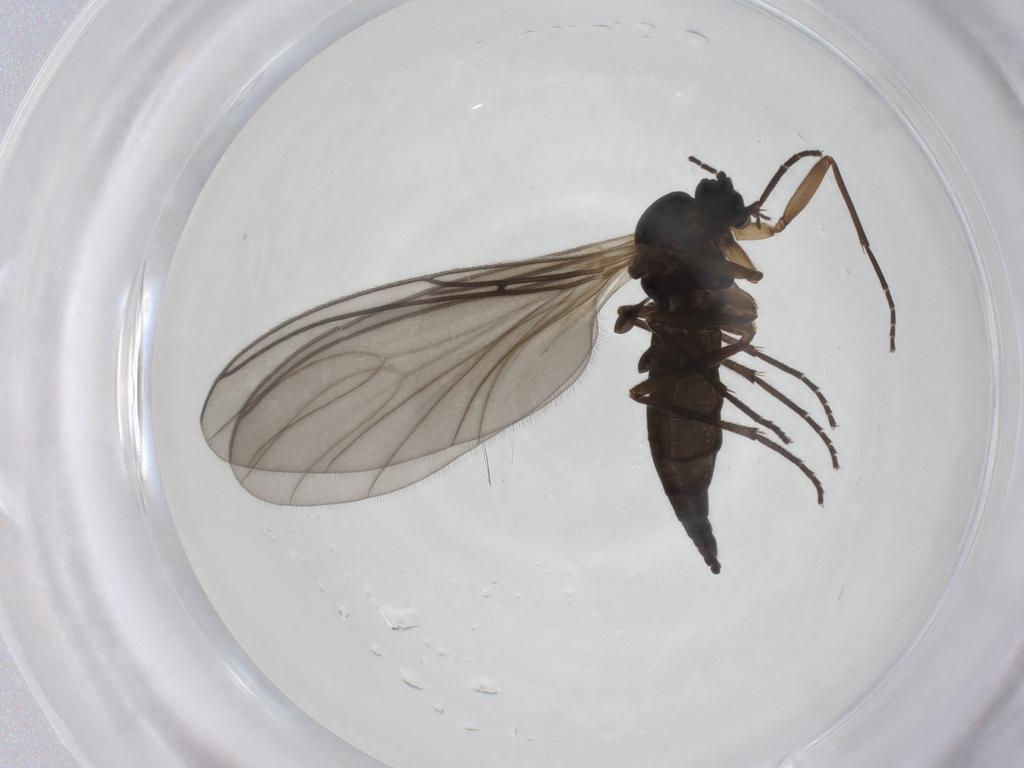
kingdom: Animalia
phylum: Arthropoda
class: Insecta
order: Diptera
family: Sciaridae
